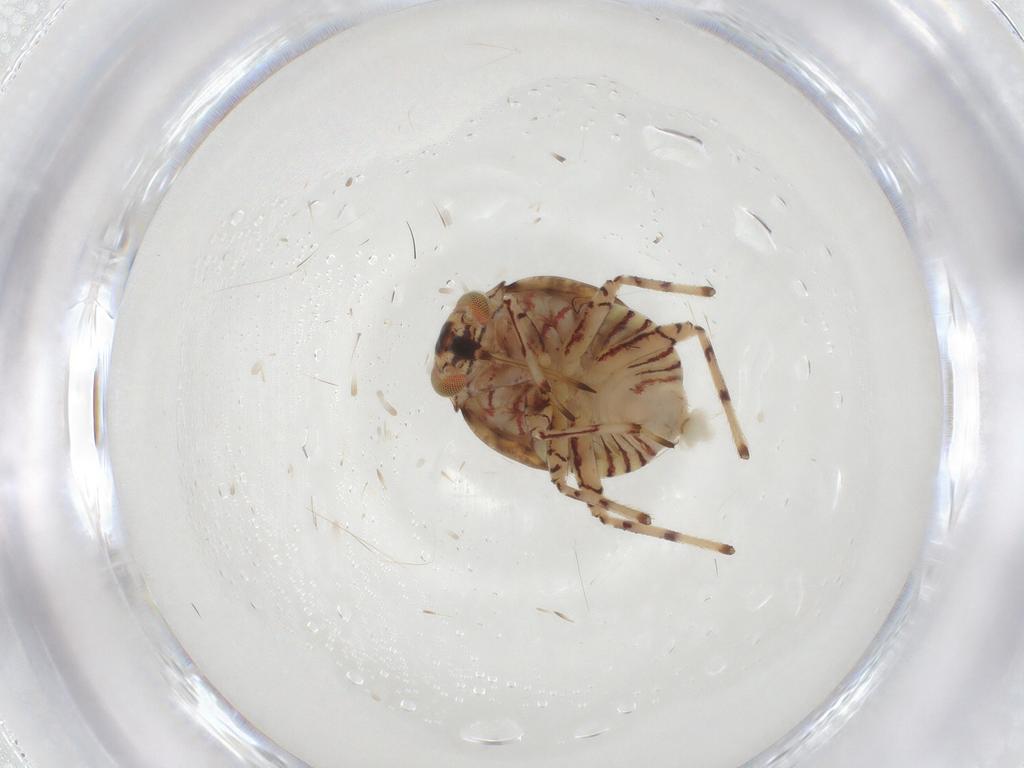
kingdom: Animalia
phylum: Arthropoda
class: Insecta
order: Hemiptera
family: Miridae
